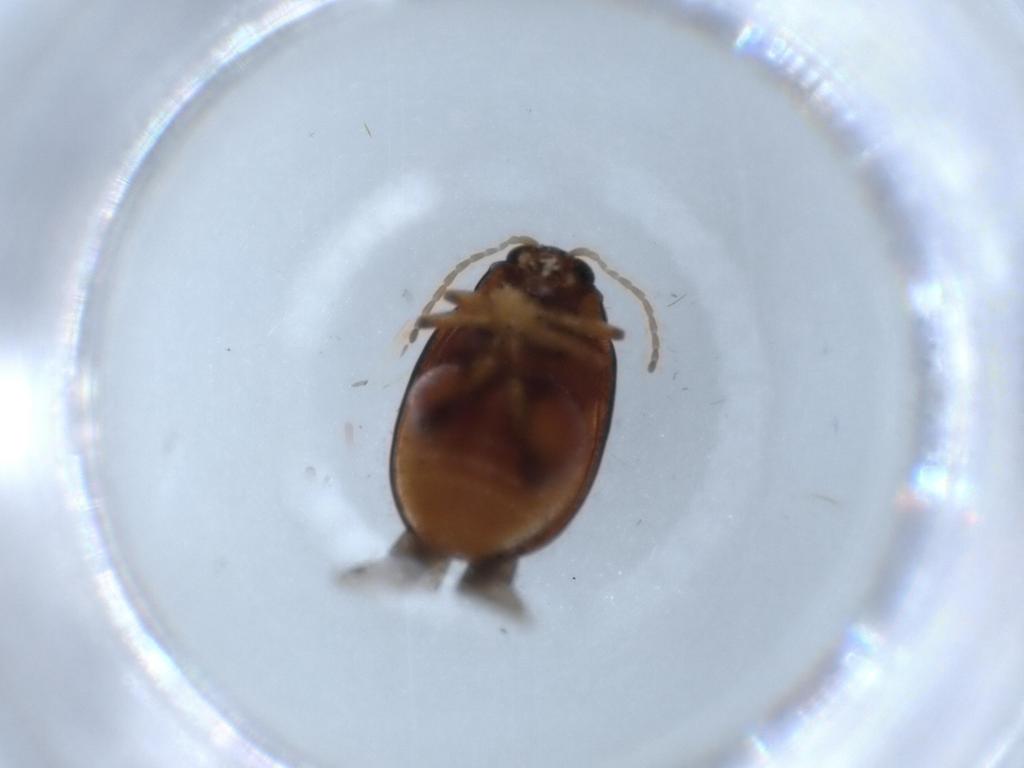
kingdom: Animalia
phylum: Arthropoda
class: Insecta
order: Coleoptera
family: Chrysomelidae
